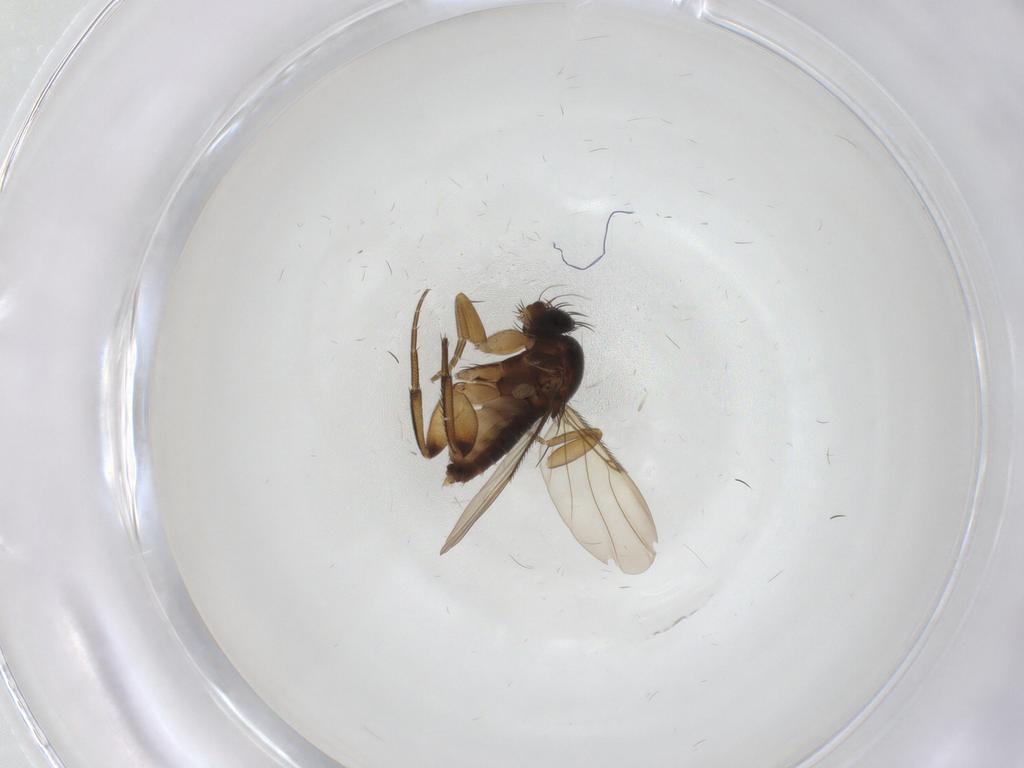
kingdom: Animalia
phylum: Arthropoda
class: Insecta
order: Diptera
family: Phoridae
